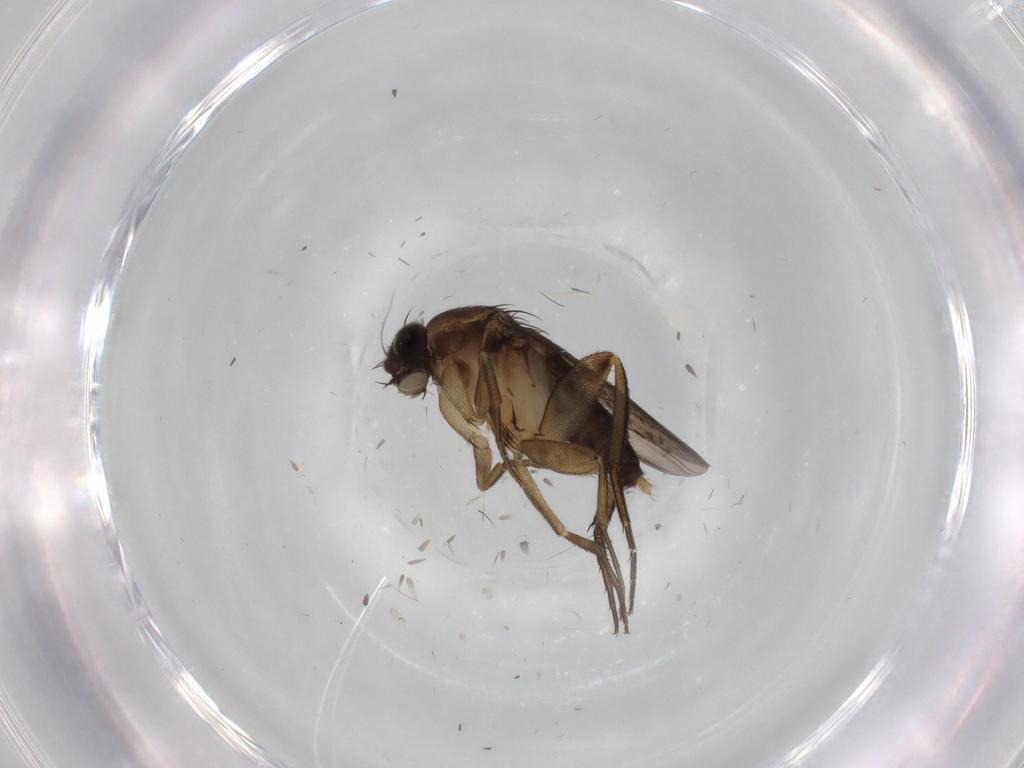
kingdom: Animalia
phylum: Arthropoda
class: Insecta
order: Diptera
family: Phoridae
